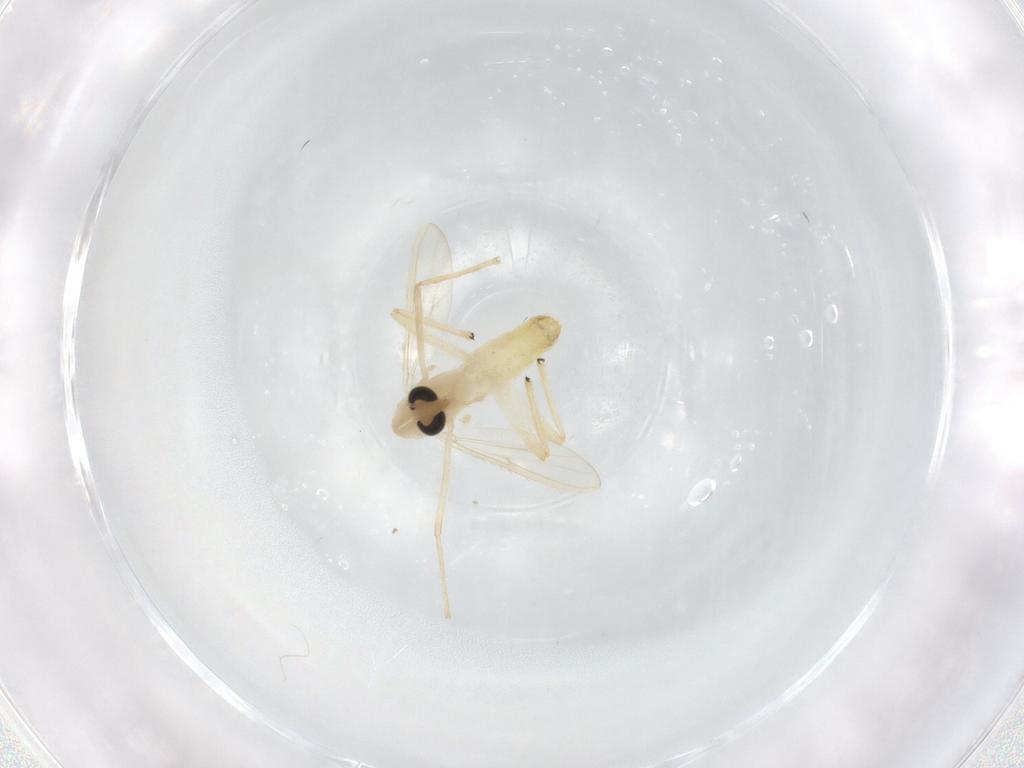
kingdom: Animalia
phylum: Arthropoda
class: Insecta
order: Diptera
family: Chironomidae
